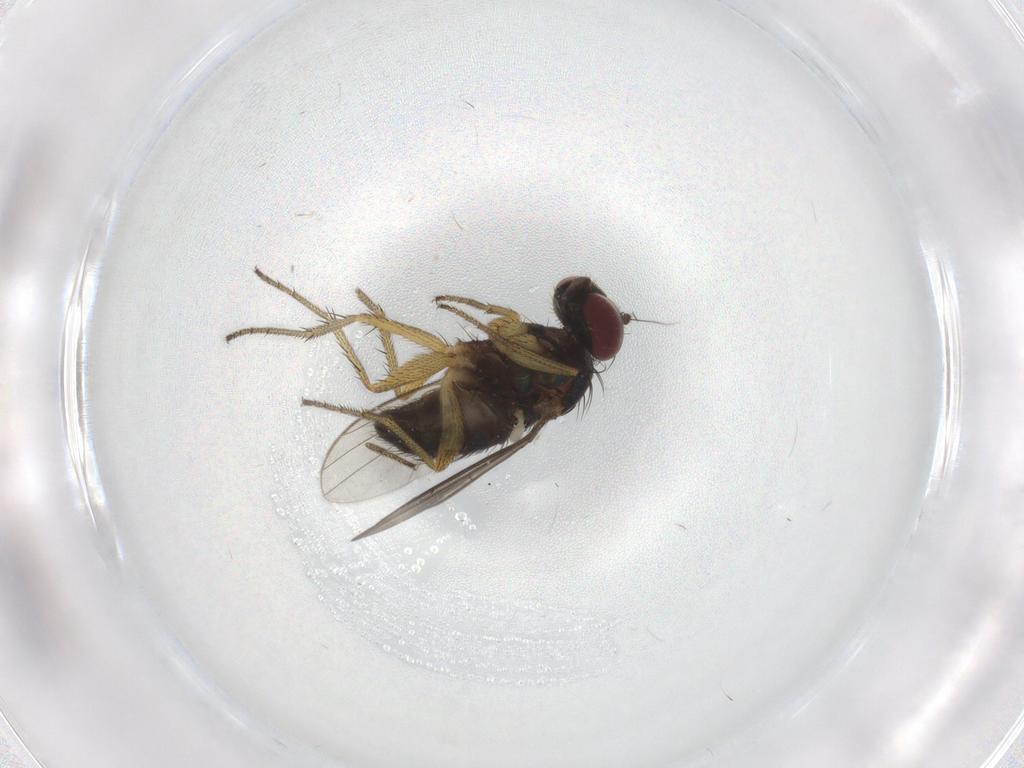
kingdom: Animalia
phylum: Arthropoda
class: Insecta
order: Diptera
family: Dolichopodidae
